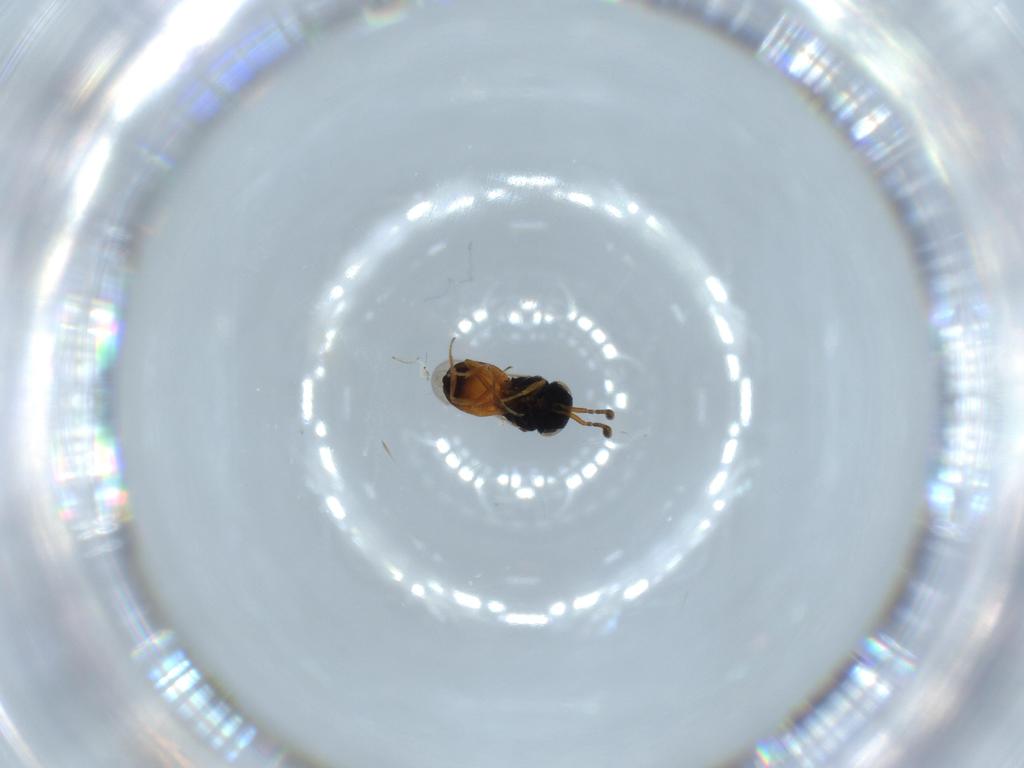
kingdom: Animalia
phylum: Arthropoda
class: Insecta
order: Hymenoptera
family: Scelionidae
